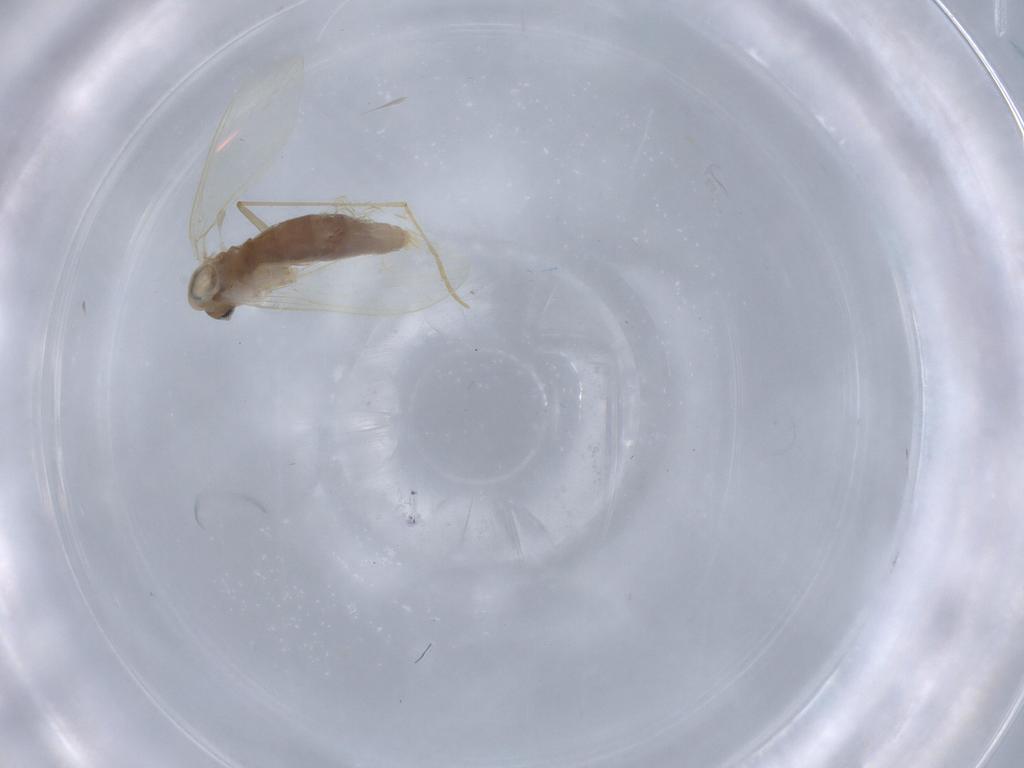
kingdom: Animalia
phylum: Arthropoda
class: Insecta
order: Diptera
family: Psychodidae
